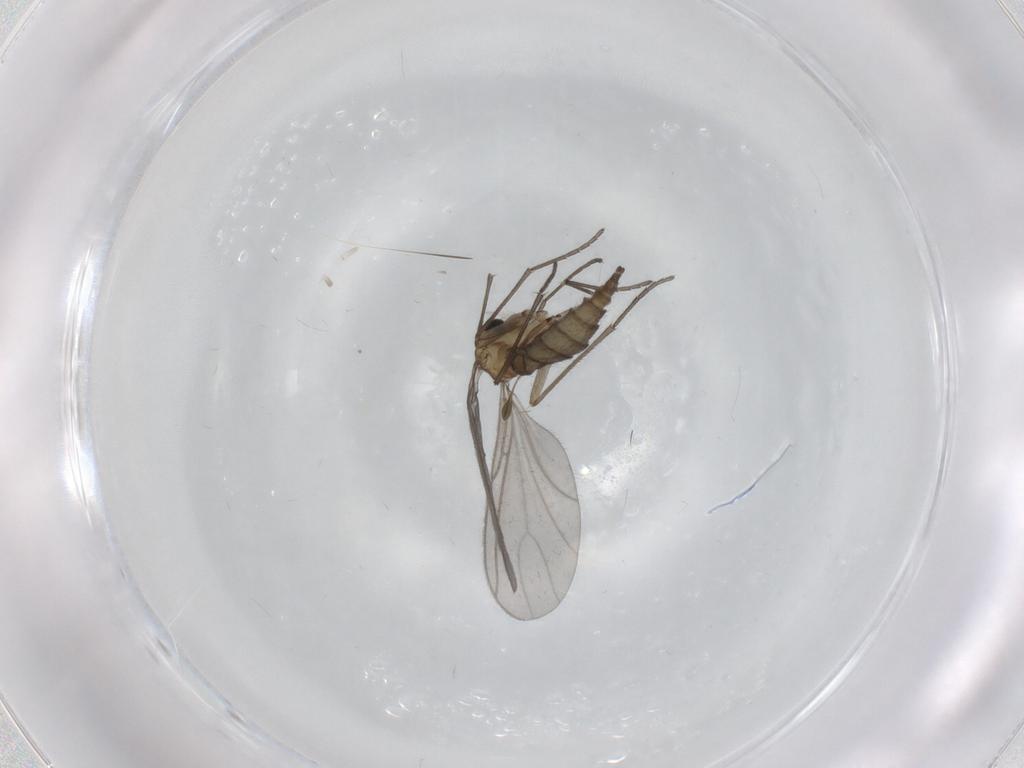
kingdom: Animalia
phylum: Arthropoda
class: Insecta
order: Diptera
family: Sciaridae
